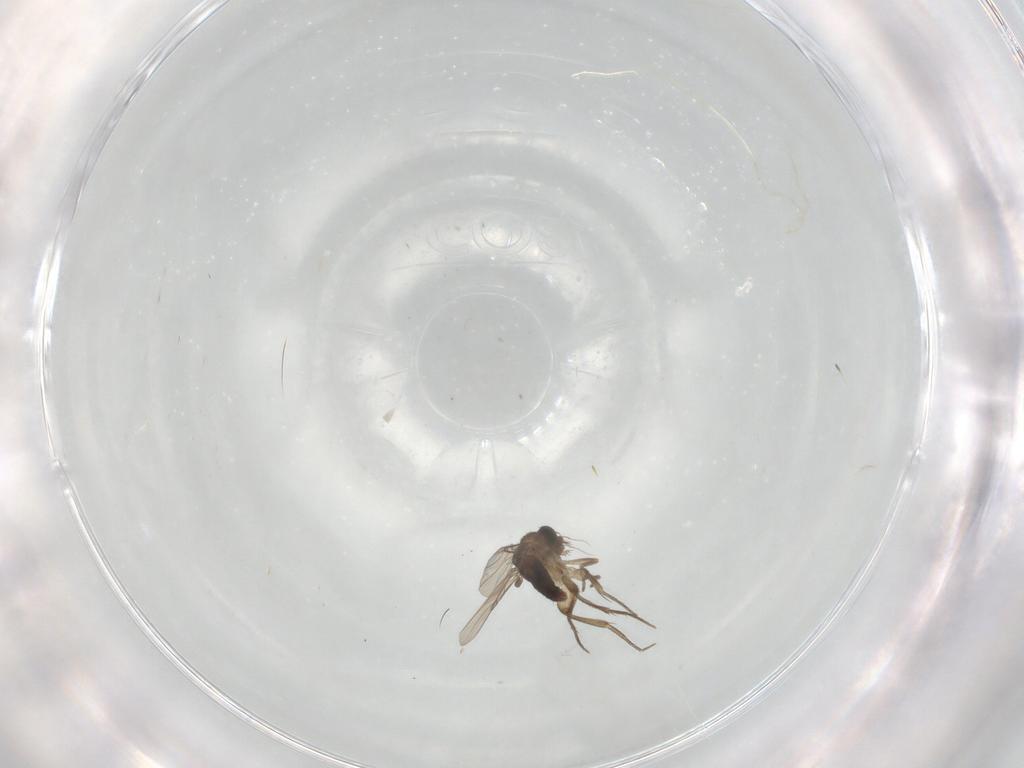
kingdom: Animalia
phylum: Arthropoda
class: Insecta
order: Diptera
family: Phoridae
